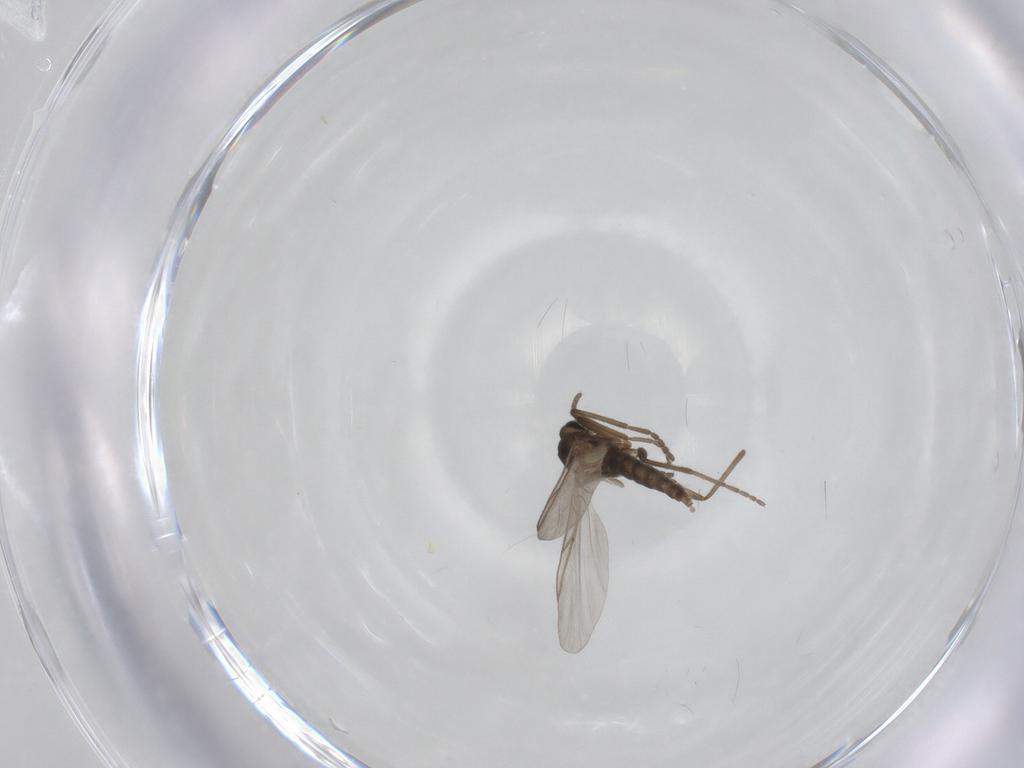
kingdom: Animalia
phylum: Arthropoda
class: Insecta
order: Diptera
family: Cecidomyiidae
